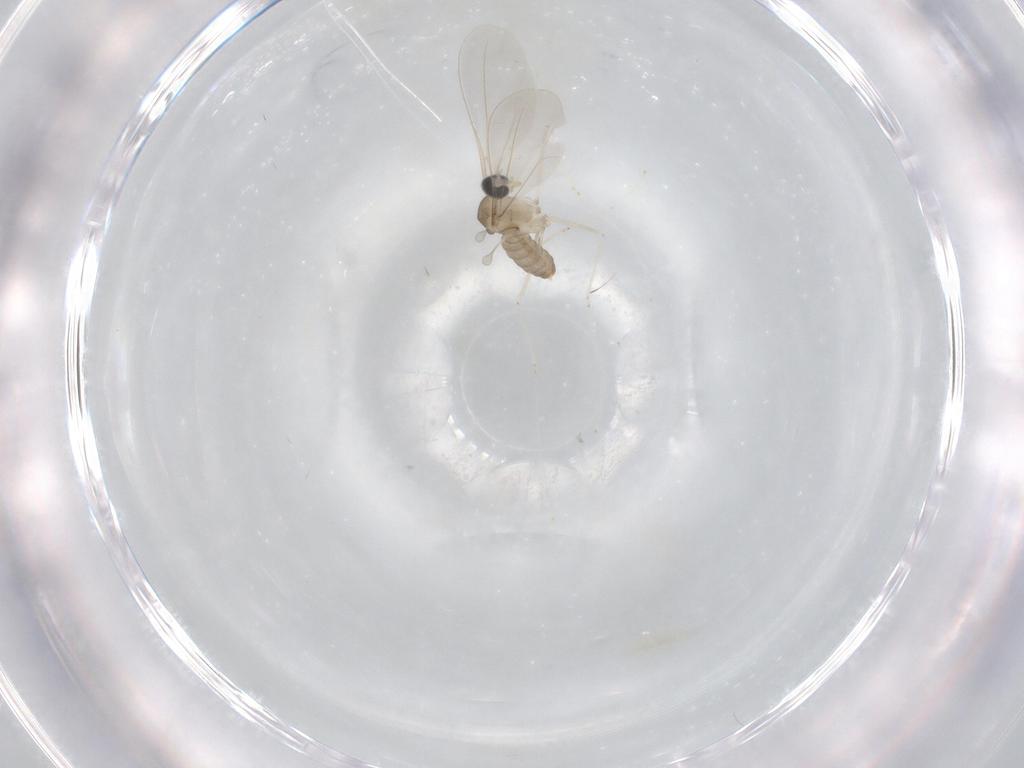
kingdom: Animalia
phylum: Arthropoda
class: Insecta
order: Diptera
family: Cecidomyiidae
